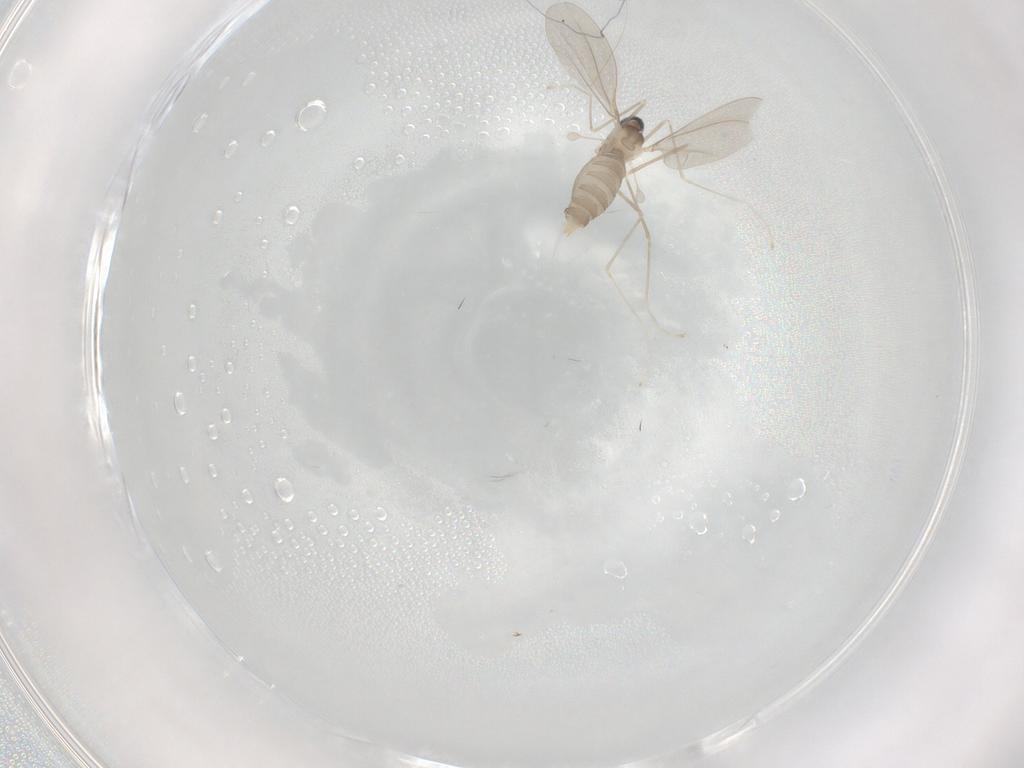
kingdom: Animalia
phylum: Arthropoda
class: Insecta
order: Diptera
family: Cecidomyiidae
